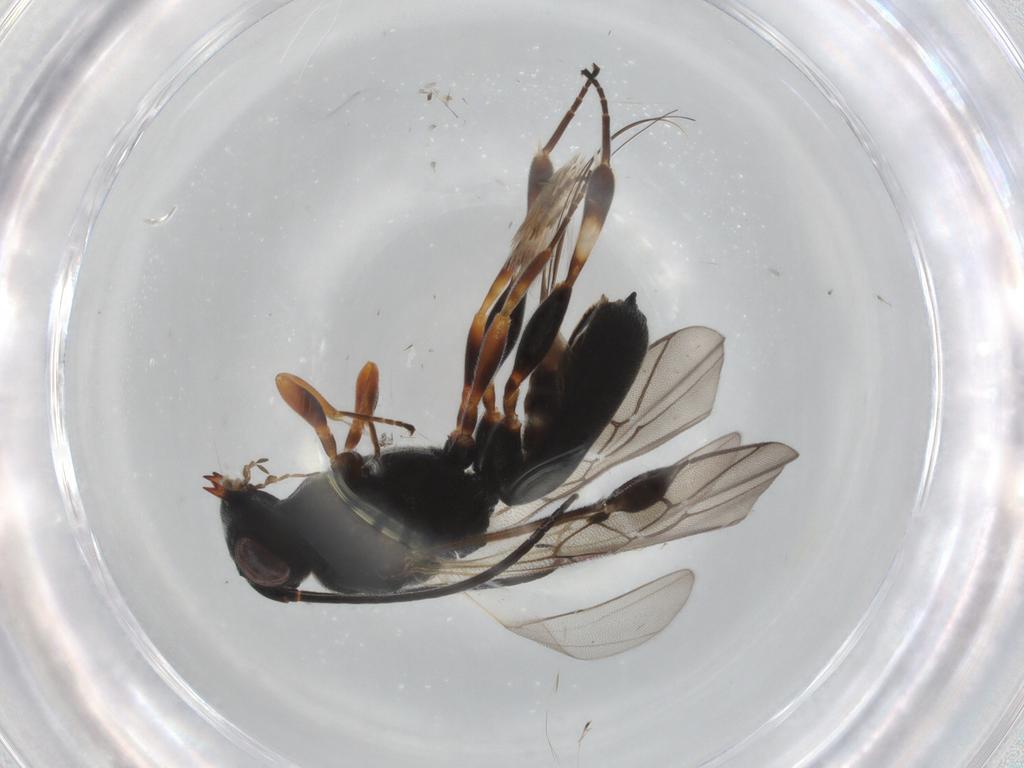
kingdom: Animalia
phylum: Arthropoda
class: Insecta
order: Hymenoptera
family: Braconidae
